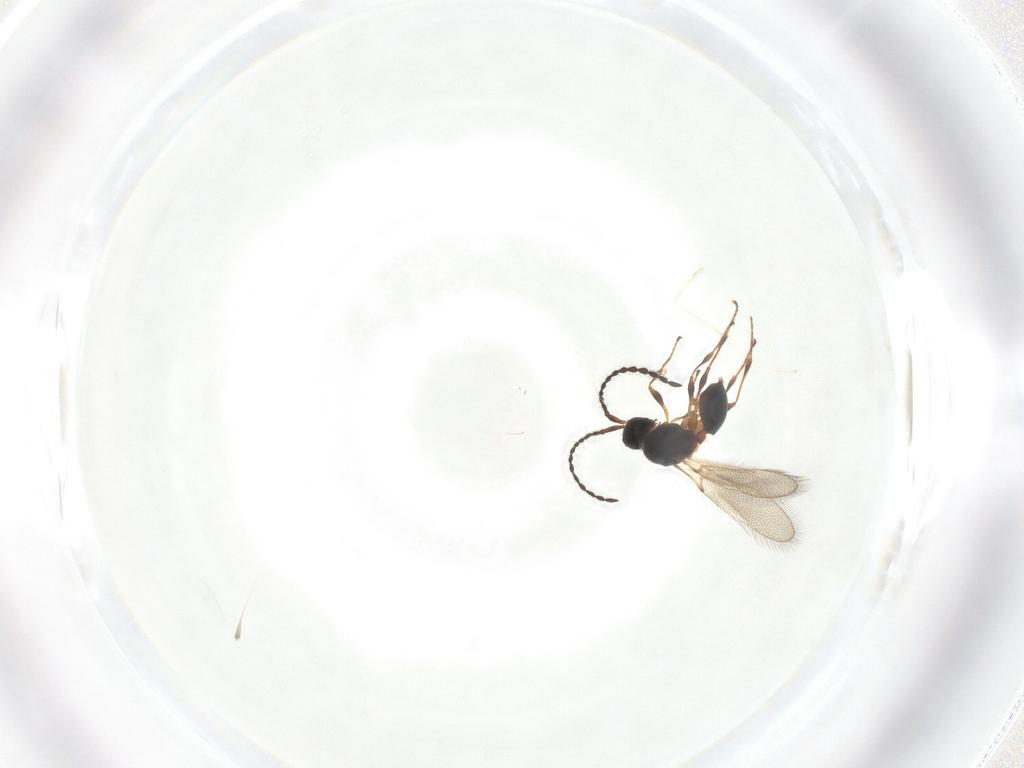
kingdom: Animalia
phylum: Arthropoda
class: Insecta
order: Hymenoptera
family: Diapriidae
